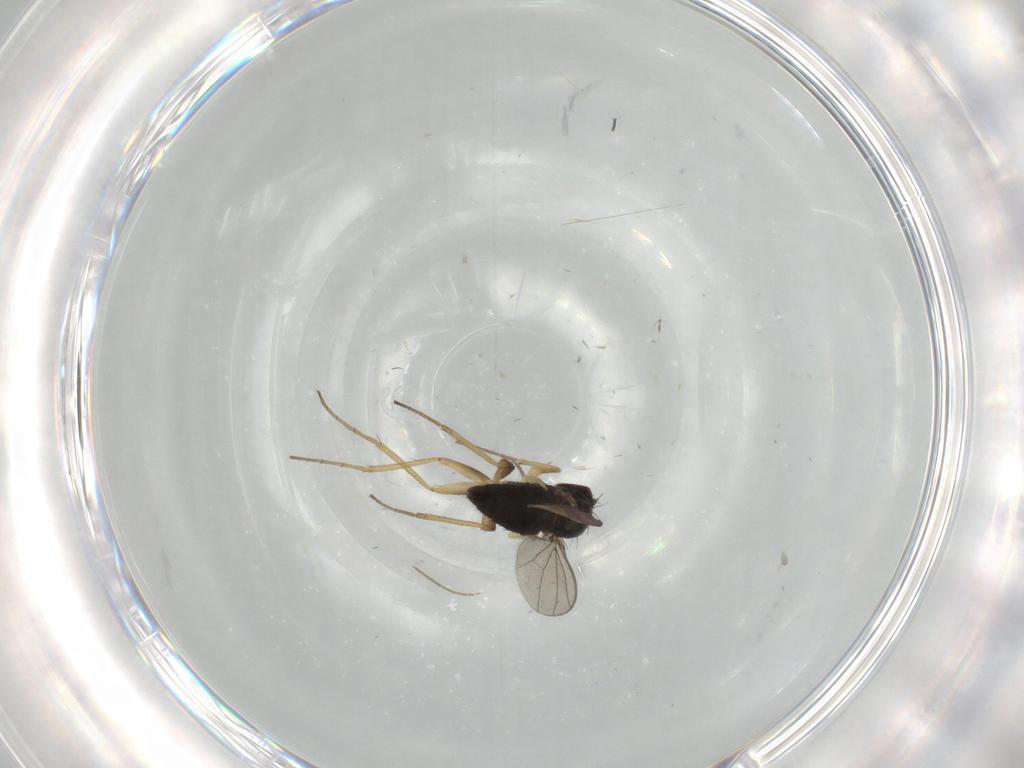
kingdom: Animalia
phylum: Arthropoda
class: Insecta
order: Diptera
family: Dolichopodidae
